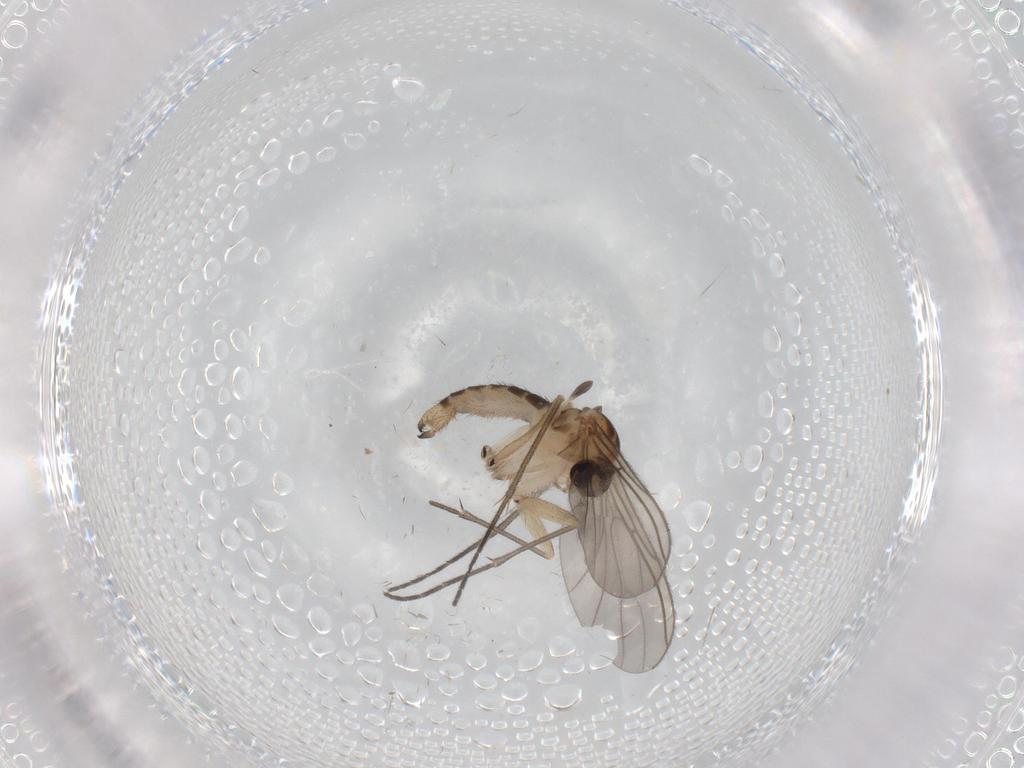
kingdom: Animalia
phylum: Arthropoda
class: Insecta
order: Diptera
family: Sciaridae
